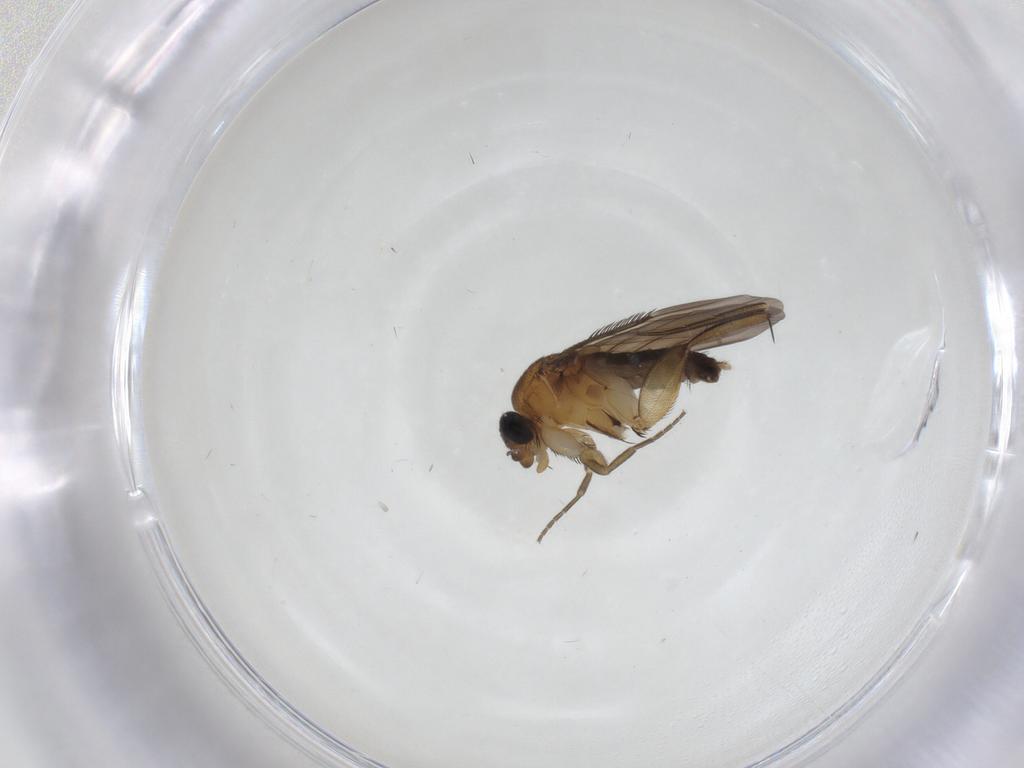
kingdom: Animalia
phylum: Arthropoda
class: Insecta
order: Diptera
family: Phoridae
